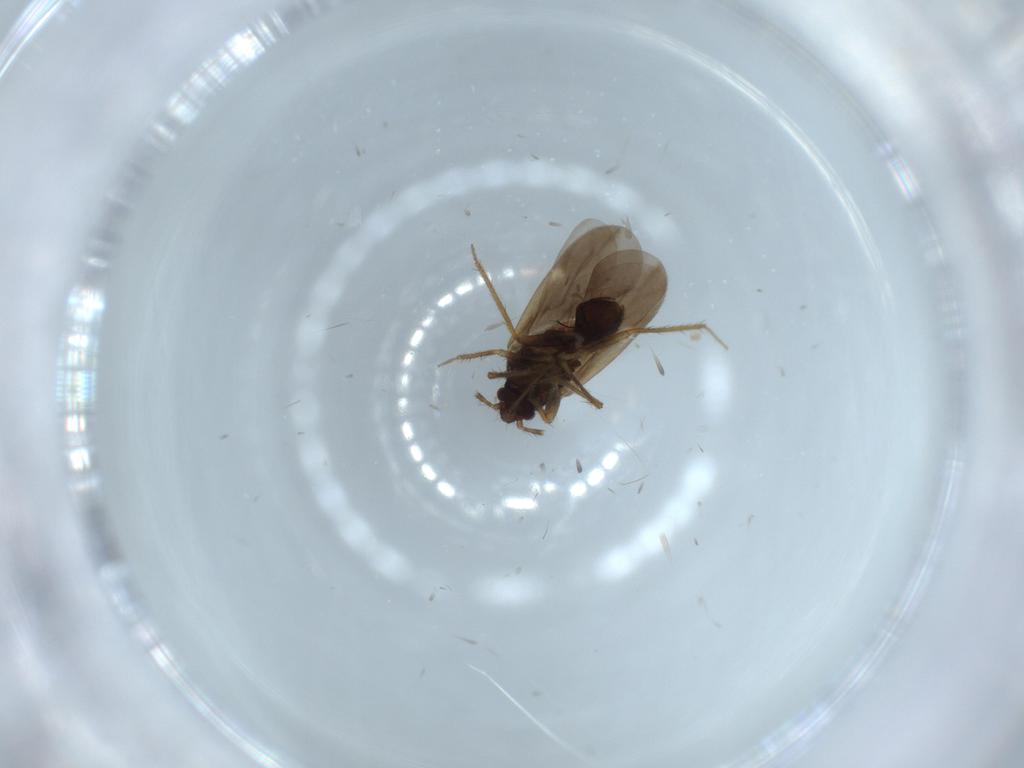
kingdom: Animalia
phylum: Arthropoda
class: Insecta
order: Hemiptera
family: Ceratocombidae
